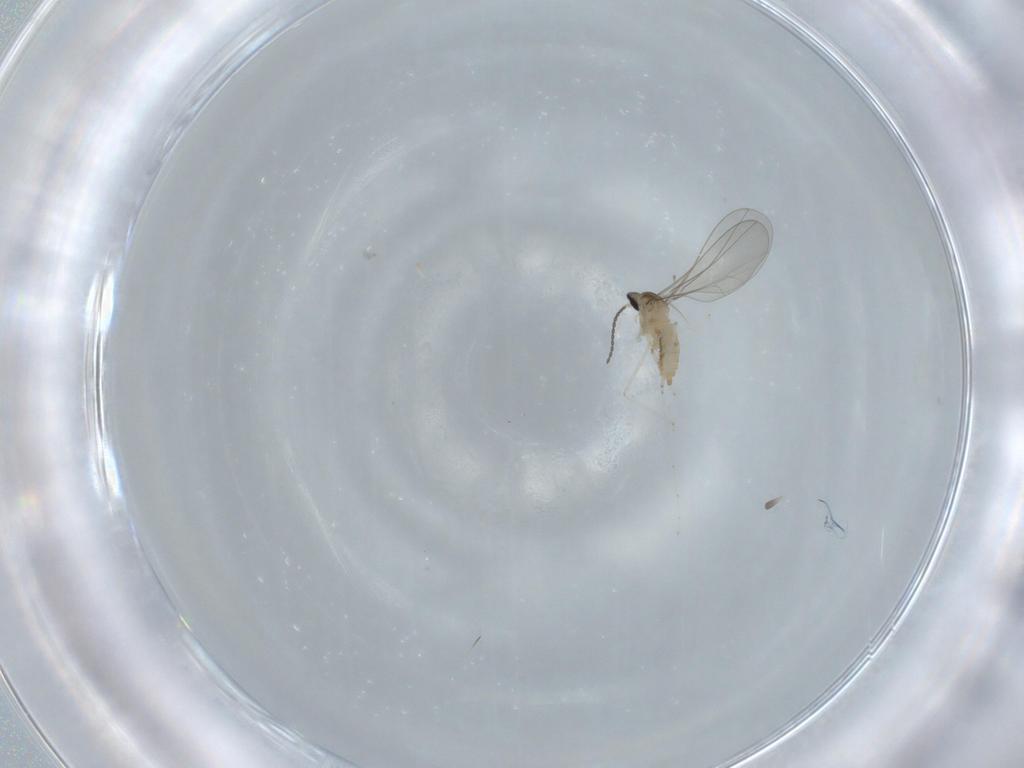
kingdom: Animalia
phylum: Arthropoda
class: Insecta
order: Diptera
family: Cecidomyiidae
